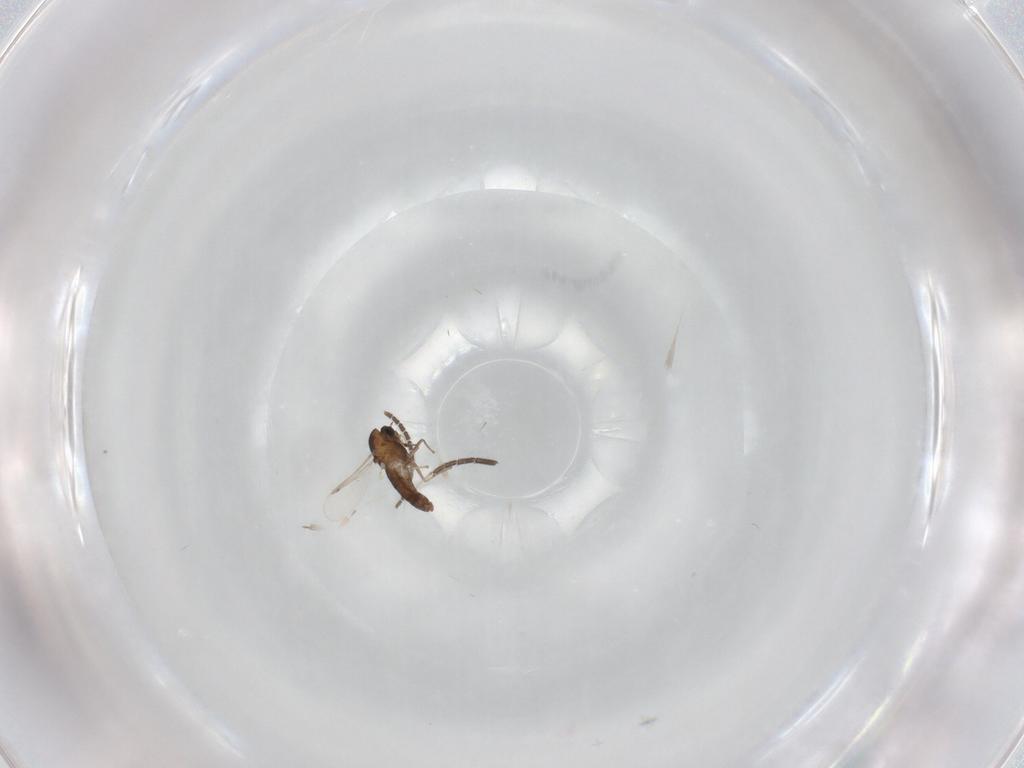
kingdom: Animalia
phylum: Arthropoda
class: Insecta
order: Diptera
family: Sciaridae
